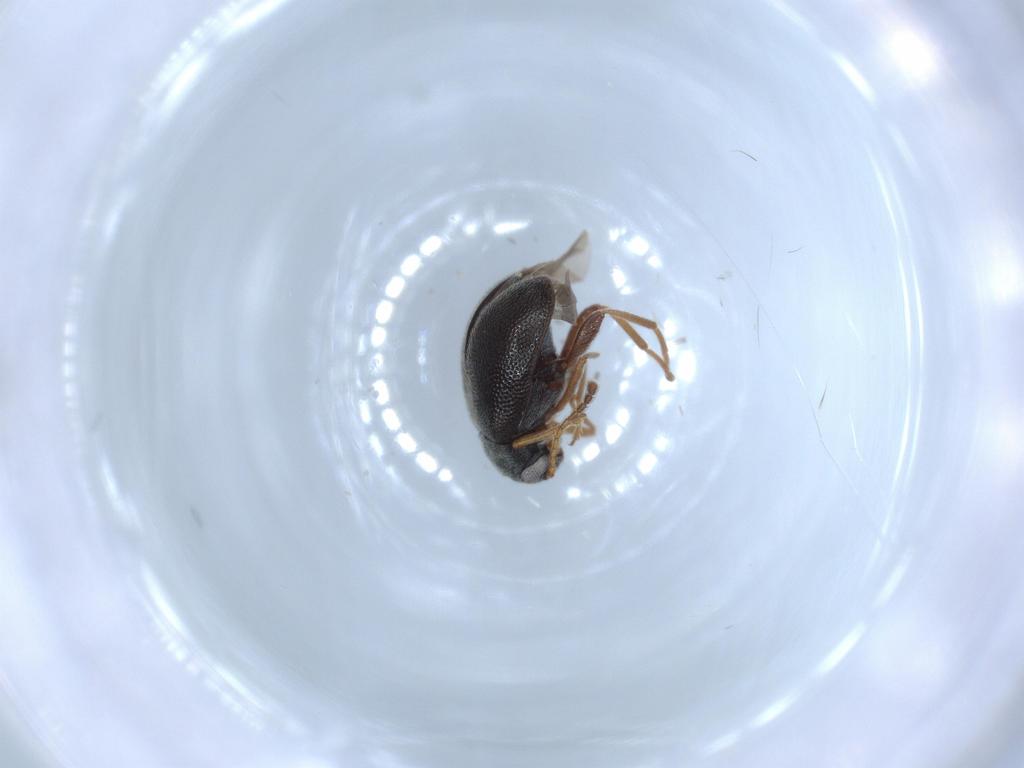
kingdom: Animalia
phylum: Arthropoda
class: Insecta
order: Coleoptera
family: Aderidae
